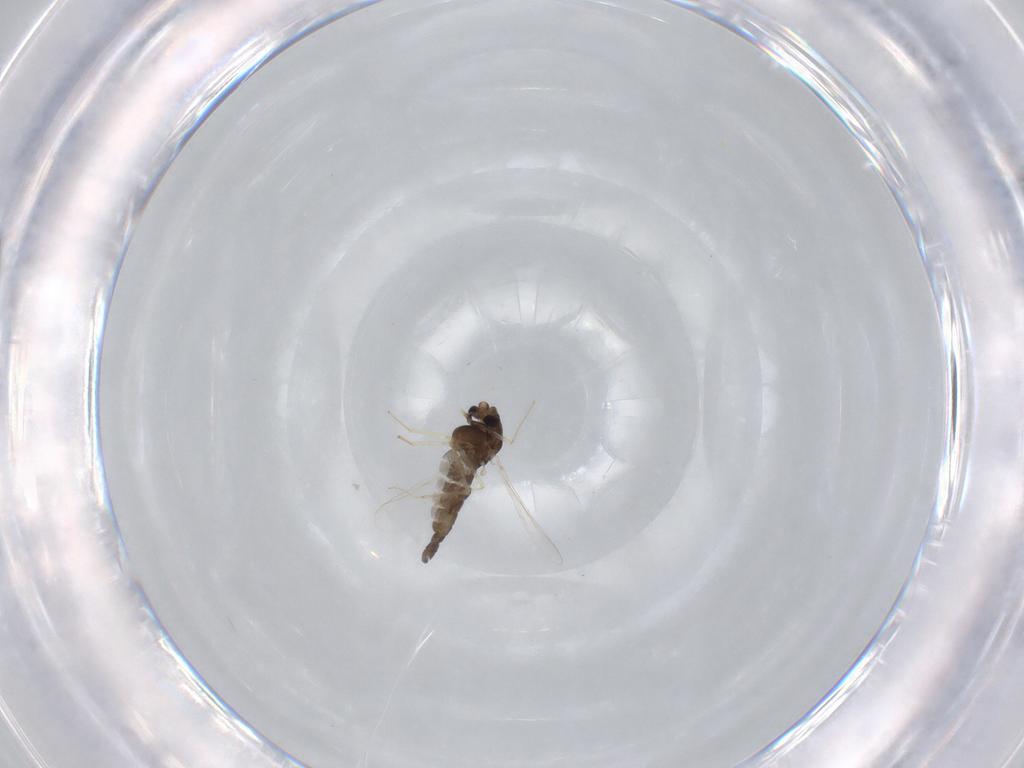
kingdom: Animalia
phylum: Arthropoda
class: Insecta
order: Diptera
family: Chironomidae
